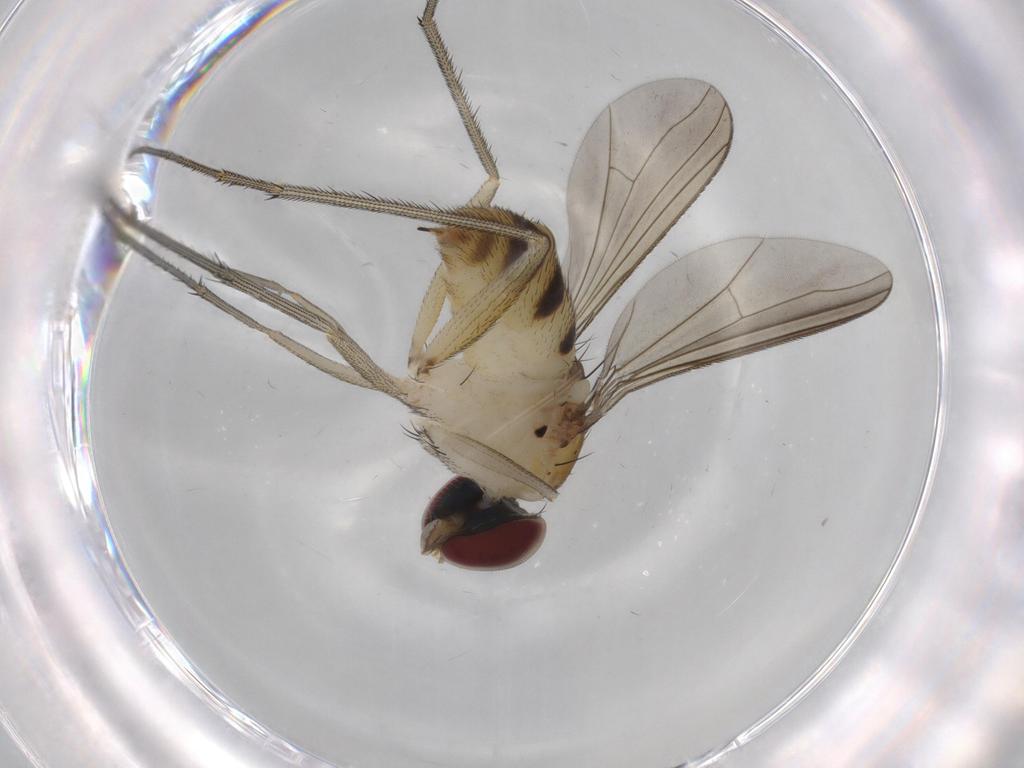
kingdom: Animalia
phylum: Arthropoda
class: Insecta
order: Diptera
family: Dolichopodidae
